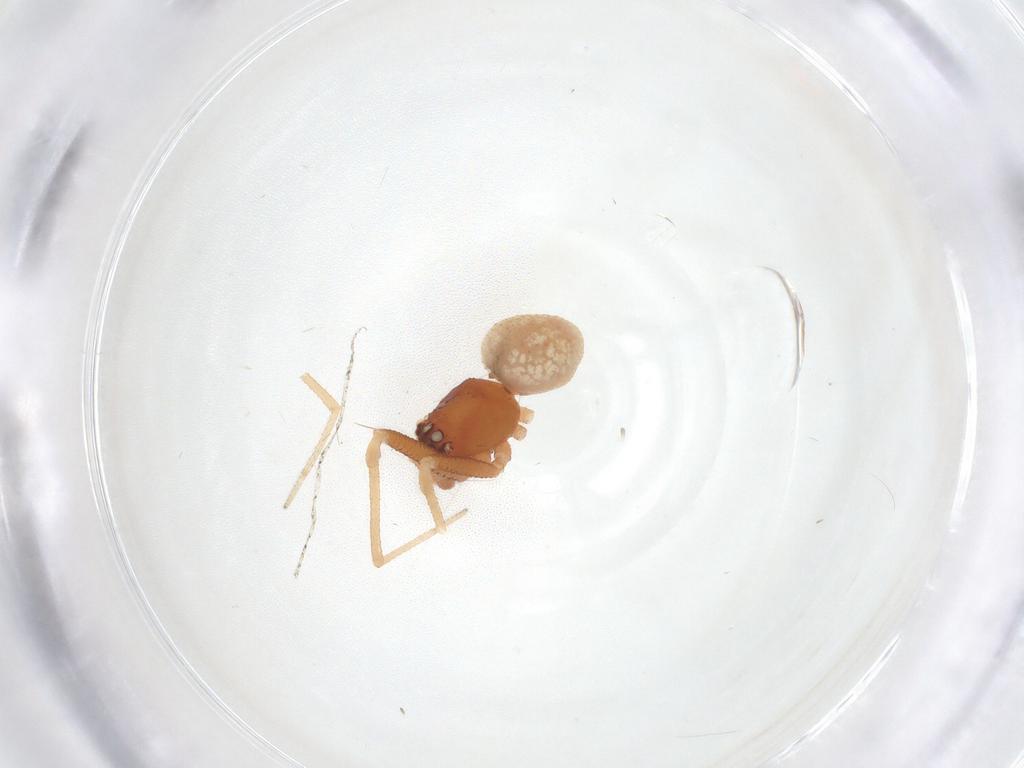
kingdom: Animalia
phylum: Arthropoda
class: Arachnida
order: Araneae
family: Theridiidae
